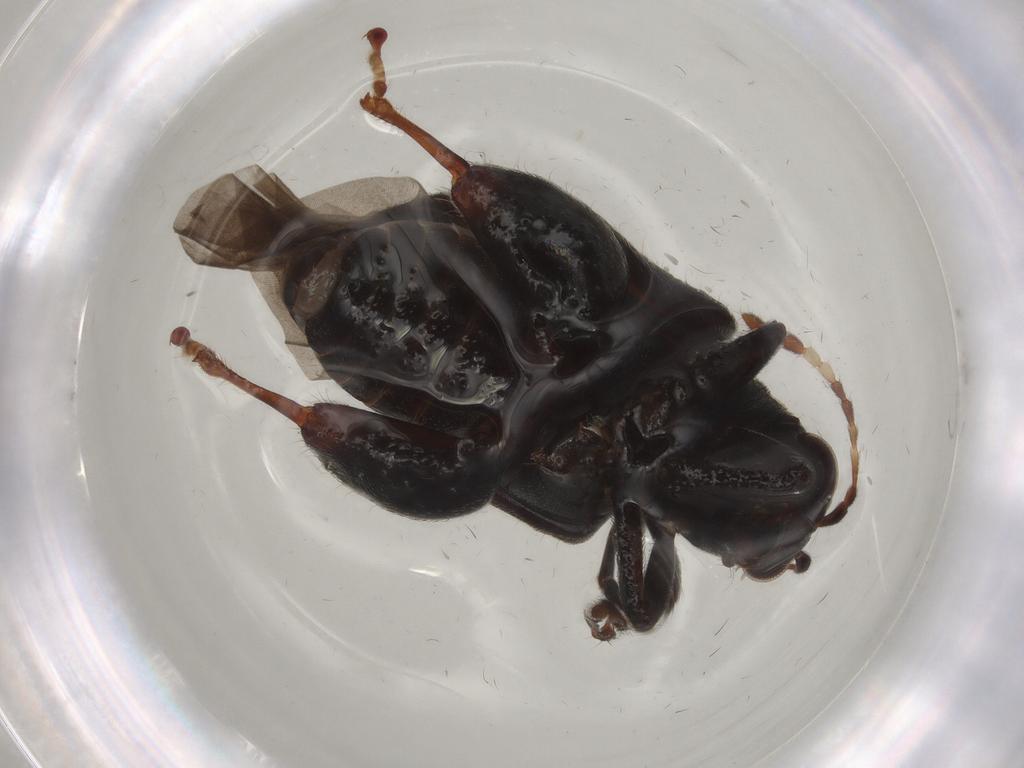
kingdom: Animalia
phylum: Arthropoda
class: Insecta
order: Coleoptera
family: Chrysomelidae
